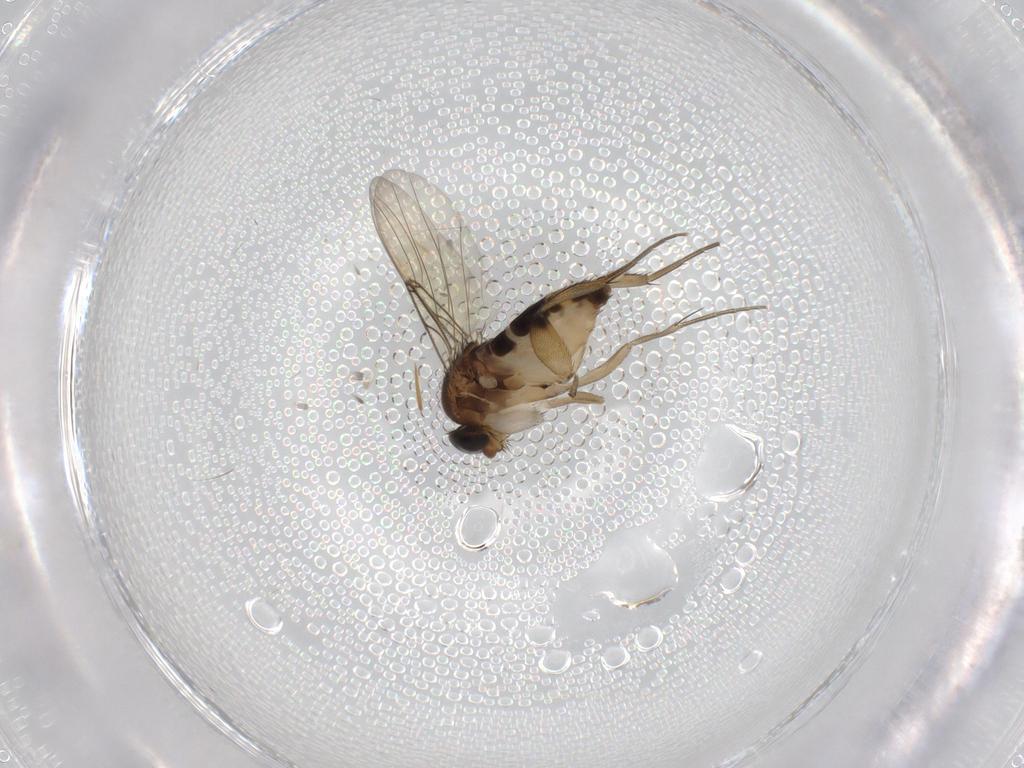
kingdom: Animalia
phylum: Arthropoda
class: Insecta
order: Diptera
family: Phoridae
